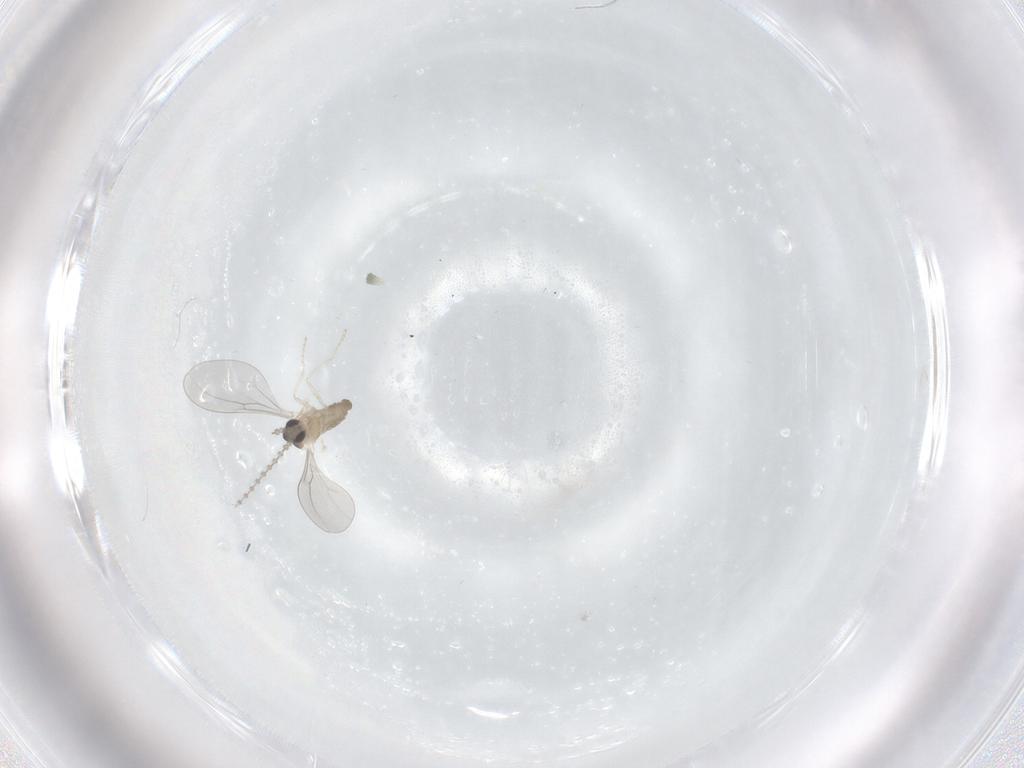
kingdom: Animalia
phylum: Arthropoda
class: Insecta
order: Diptera
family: Cecidomyiidae
